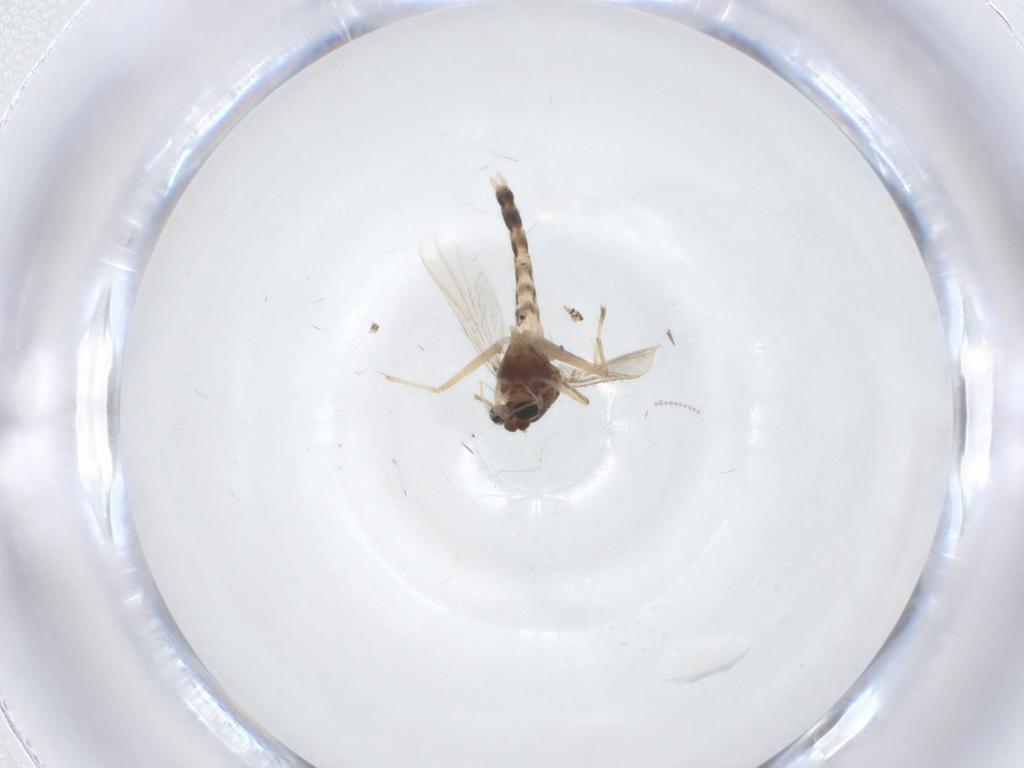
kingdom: Animalia
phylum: Arthropoda
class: Insecta
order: Diptera
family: Chironomidae
